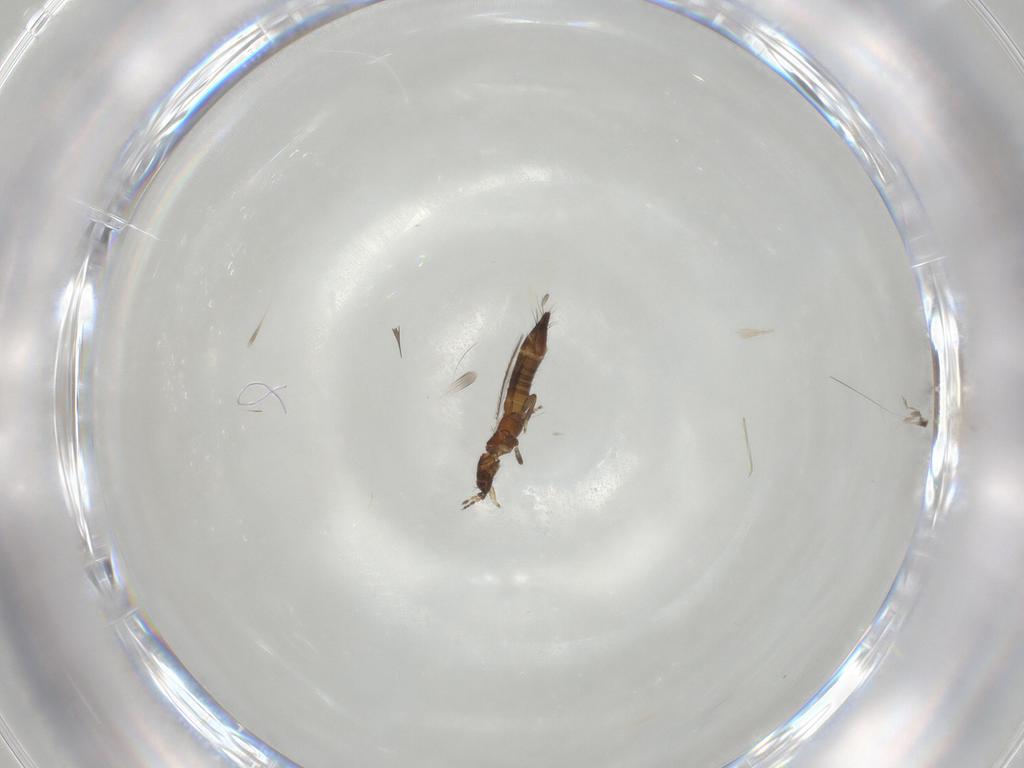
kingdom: Animalia
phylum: Arthropoda
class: Insecta
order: Thysanoptera
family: Thripidae
